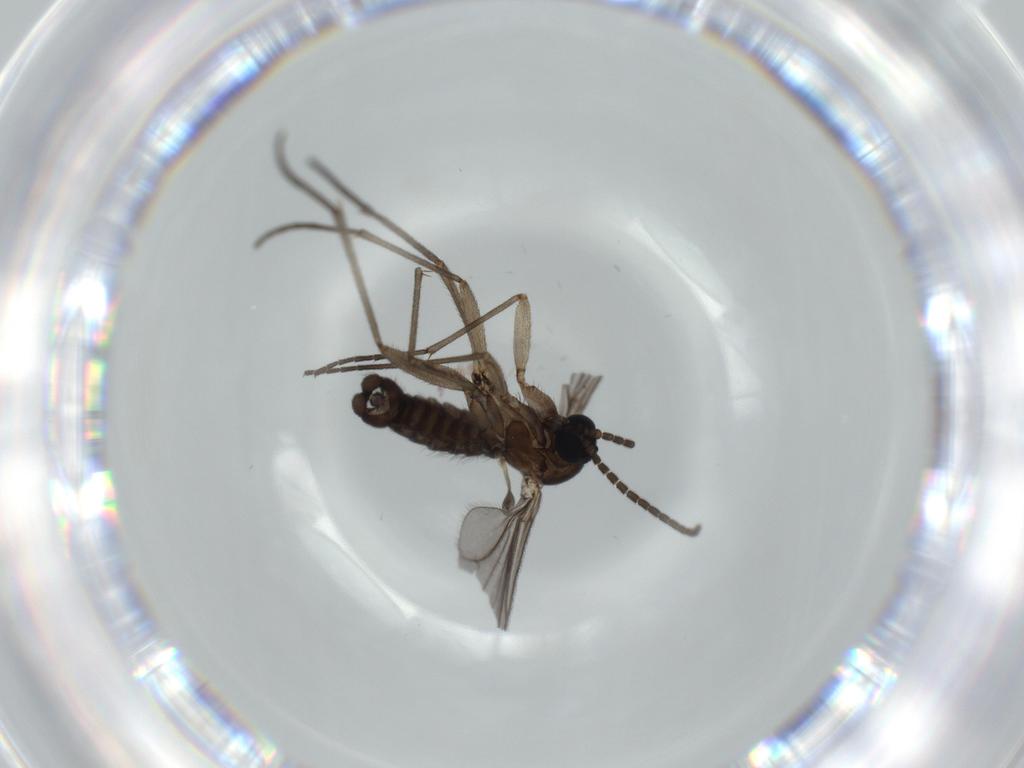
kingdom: Animalia
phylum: Arthropoda
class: Insecta
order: Diptera
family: Sciaridae
